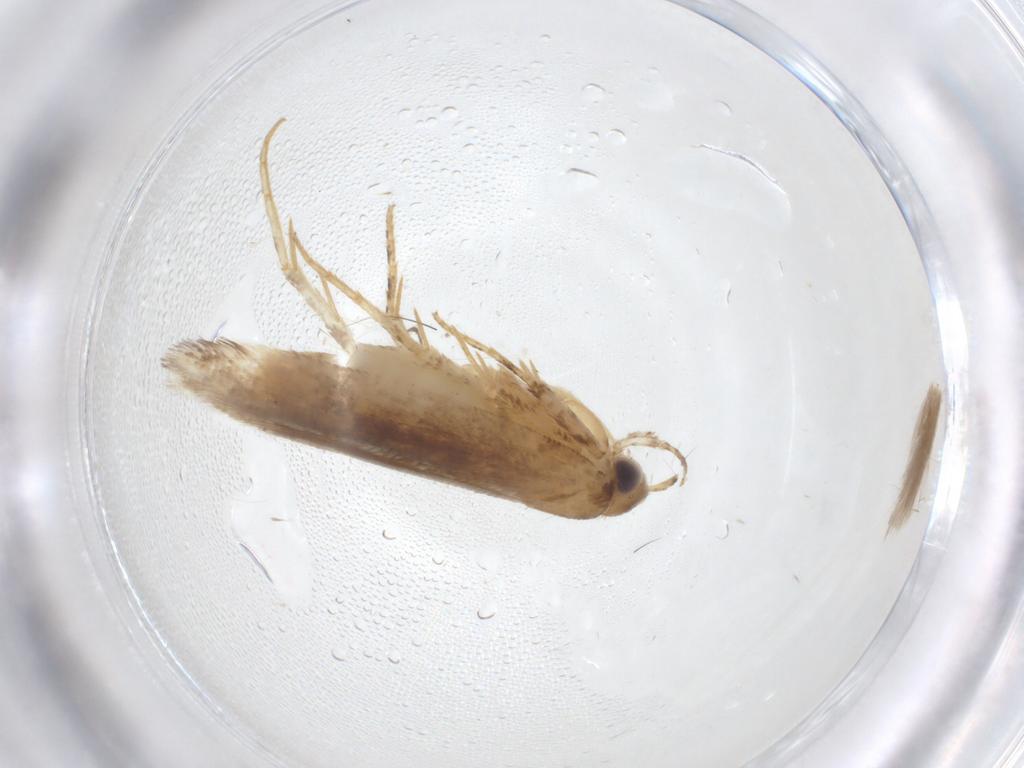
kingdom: Animalia
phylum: Arthropoda
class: Insecta
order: Lepidoptera
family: Gelechiidae
